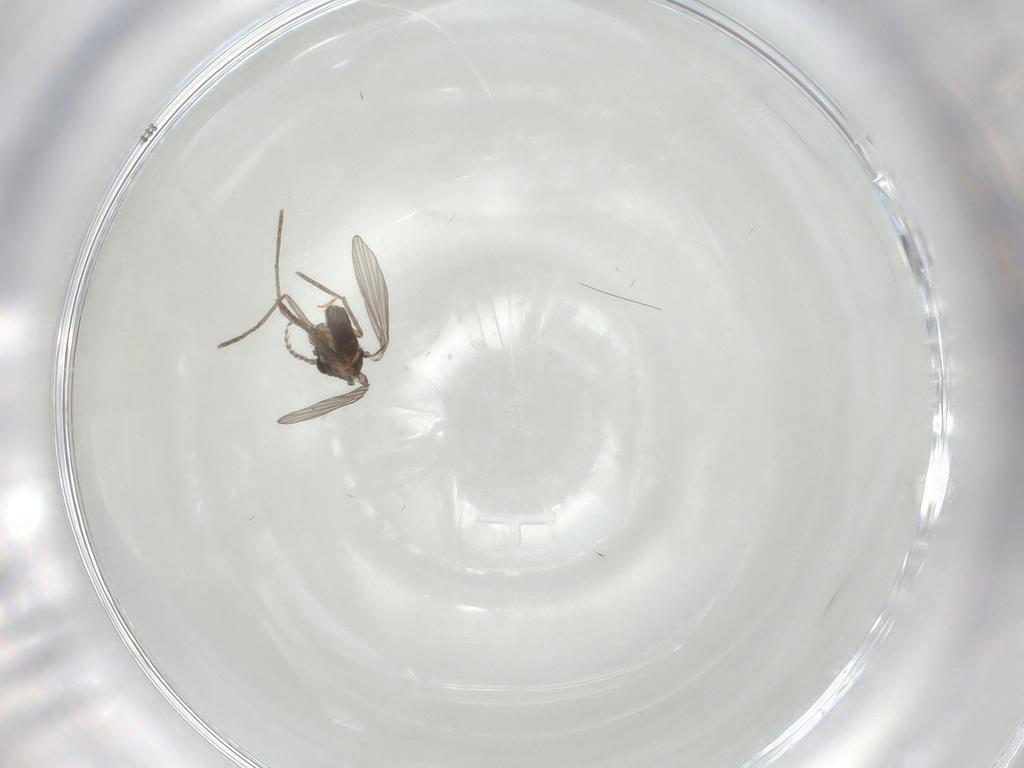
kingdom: Animalia
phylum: Arthropoda
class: Insecta
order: Diptera
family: Cecidomyiidae
